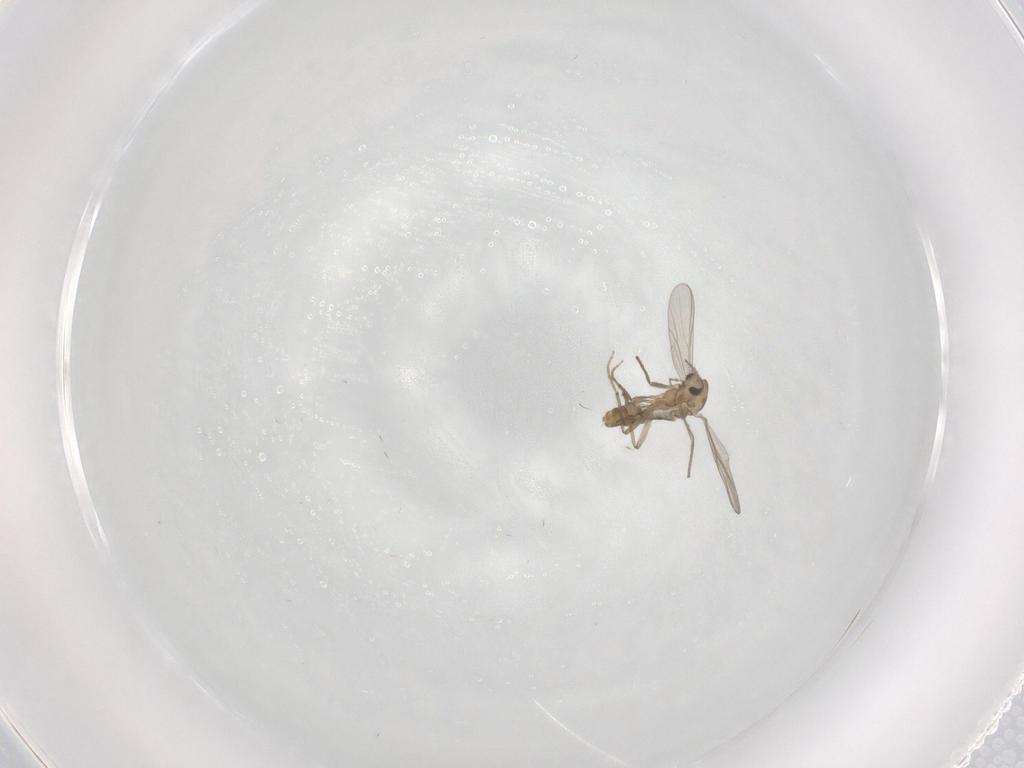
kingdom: Animalia
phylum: Arthropoda
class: Insecta
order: Diptera
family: Chironomidae
